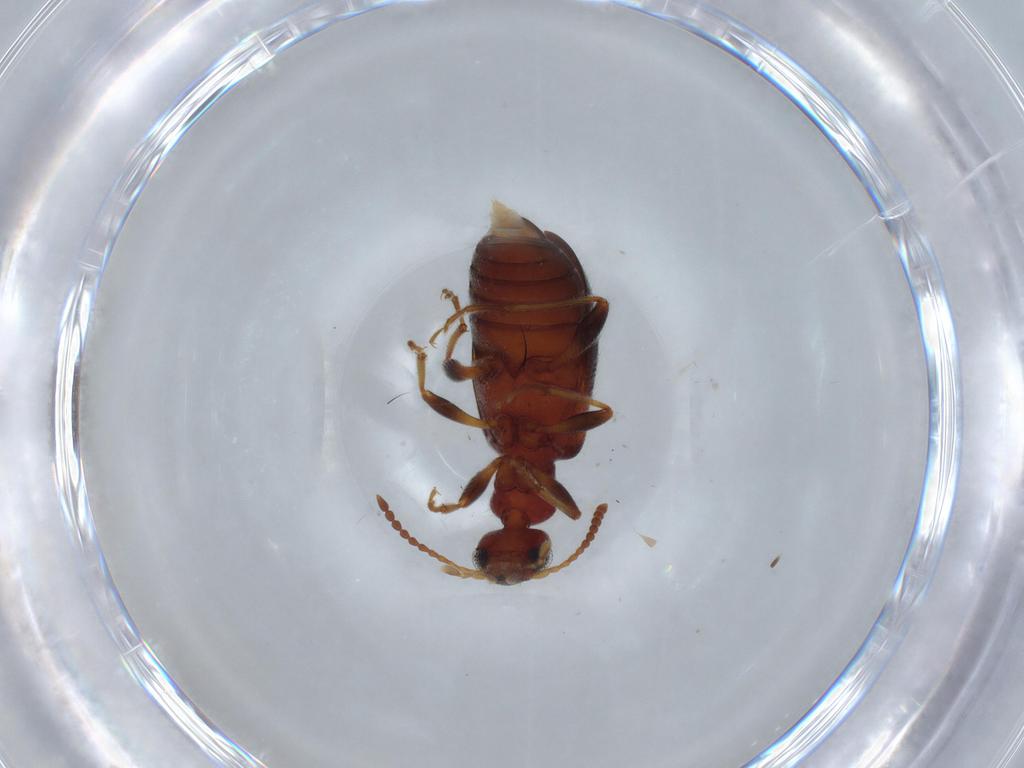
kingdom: Animalia
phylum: Arthropoda
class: Insecta
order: Coleoptera
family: Anthicidae
